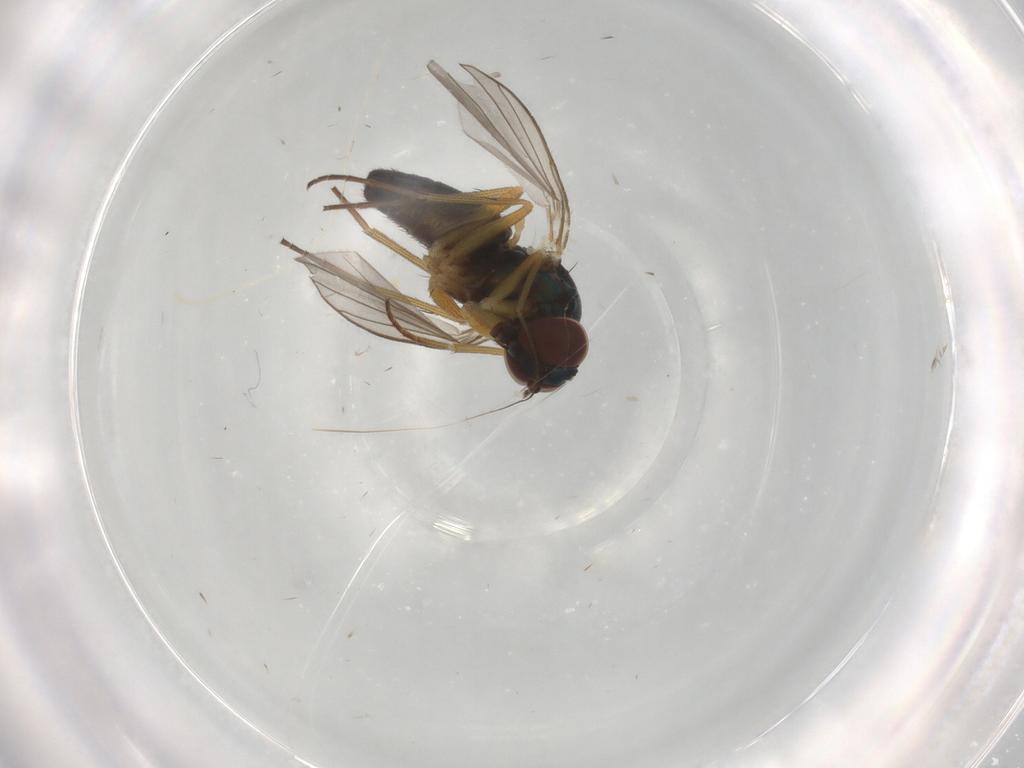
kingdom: Animalia
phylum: Arthropoda
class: Insecta
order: Diptera
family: Dolichopodidae
